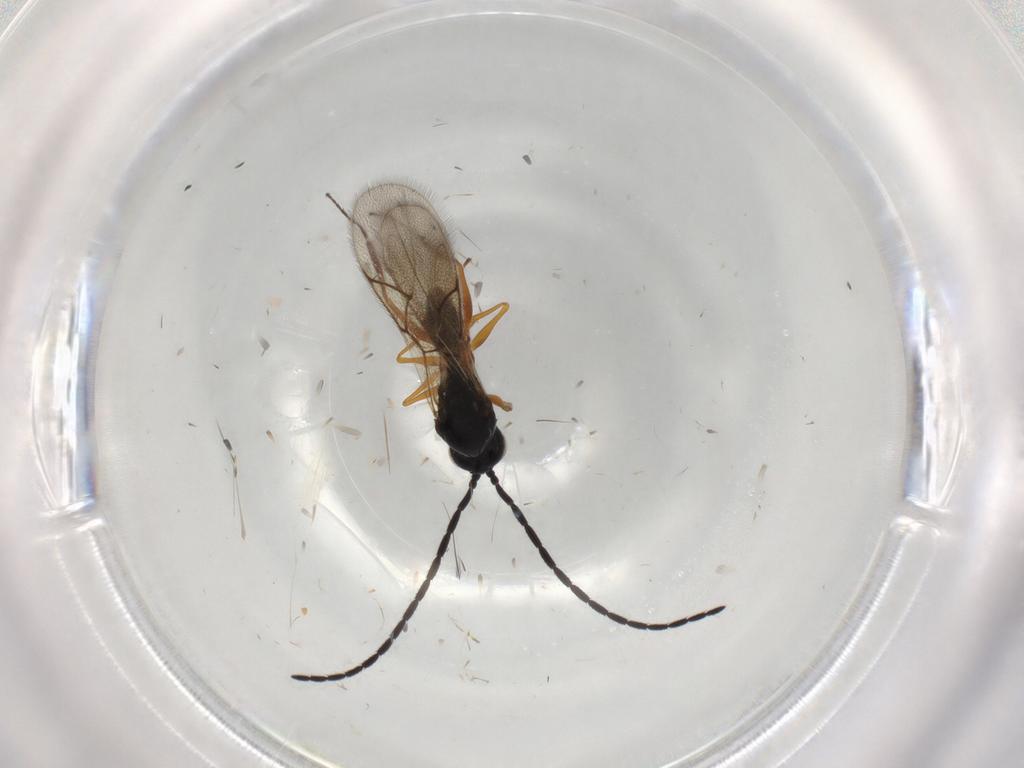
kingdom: Animalia
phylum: Arthropoda
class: Insecta
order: Hymenoptera
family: Figitidae
